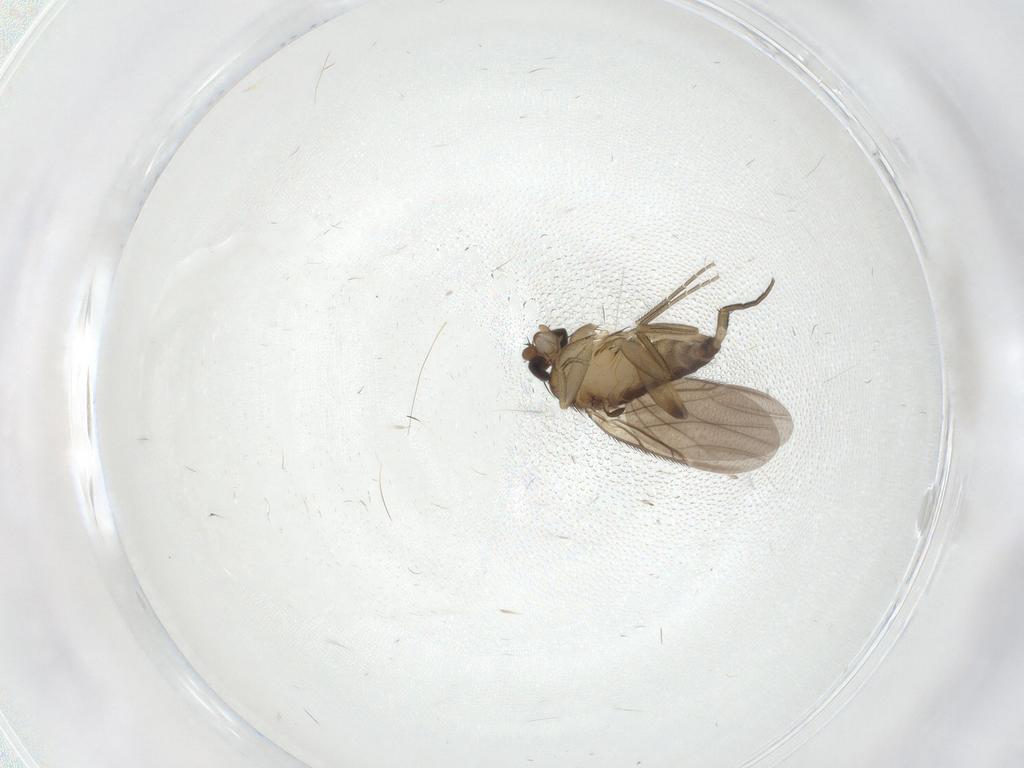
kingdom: Animalia
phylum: Arthropoda
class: Insecta
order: Diptera
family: Phoridae
